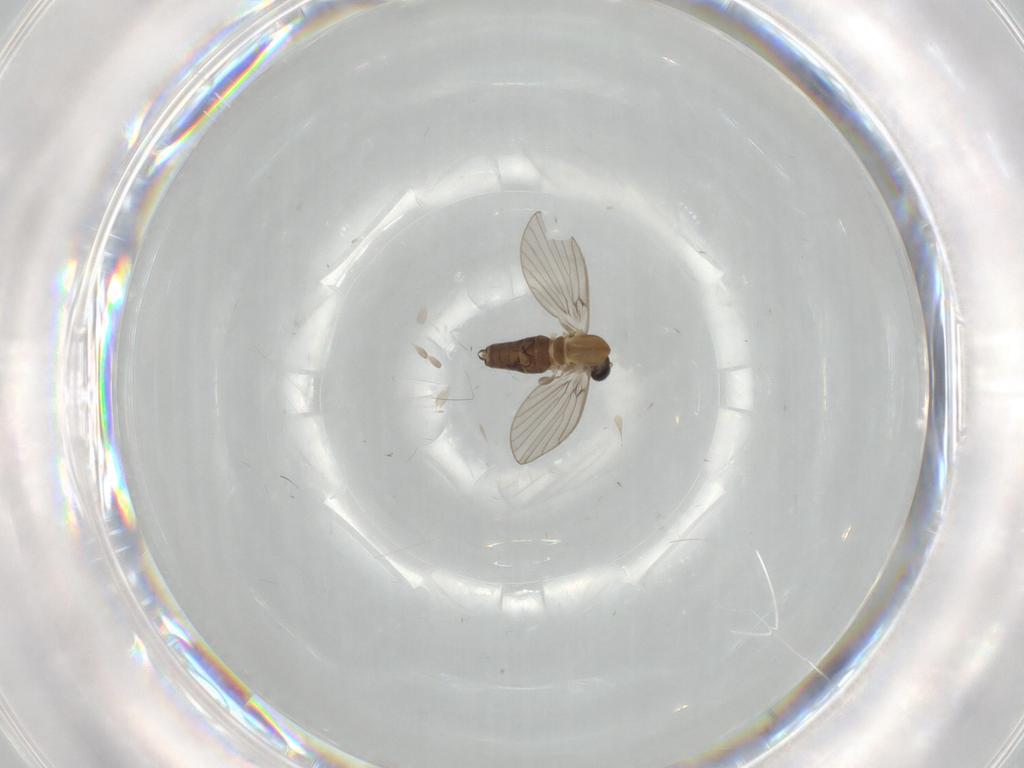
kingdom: Animalia
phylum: Arthropoda
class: Insecta
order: Diptera
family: Psychodidae
